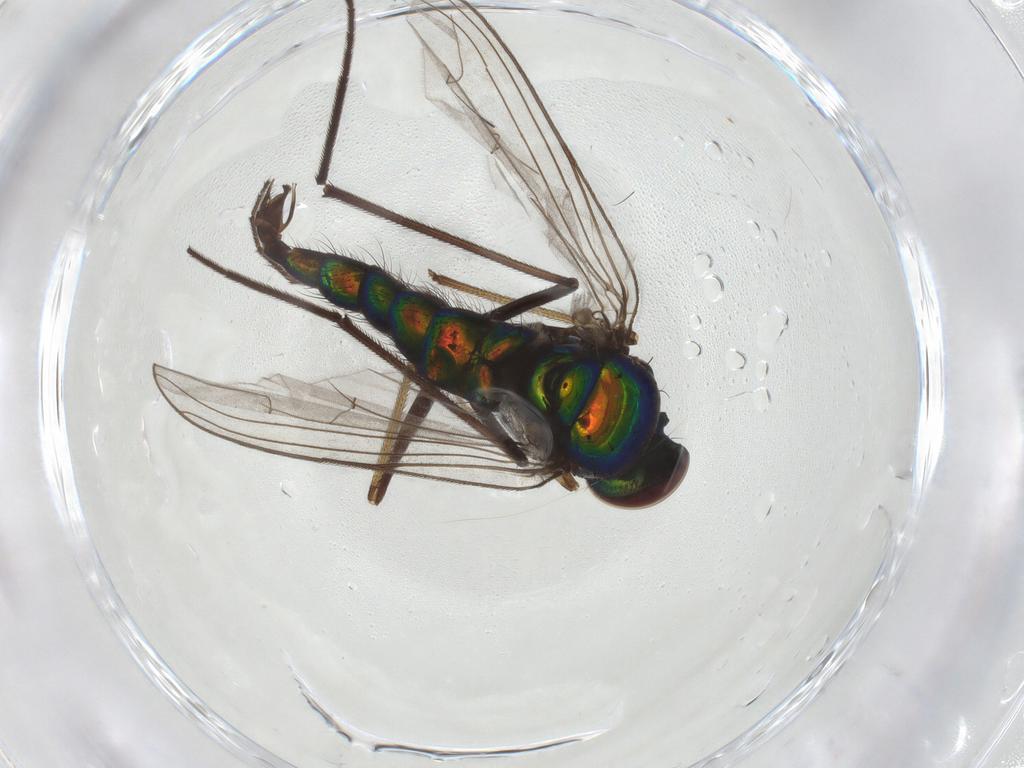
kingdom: Animalia
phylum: Arthropoda
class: Insecta
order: Diptera
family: Dolichopodidae
